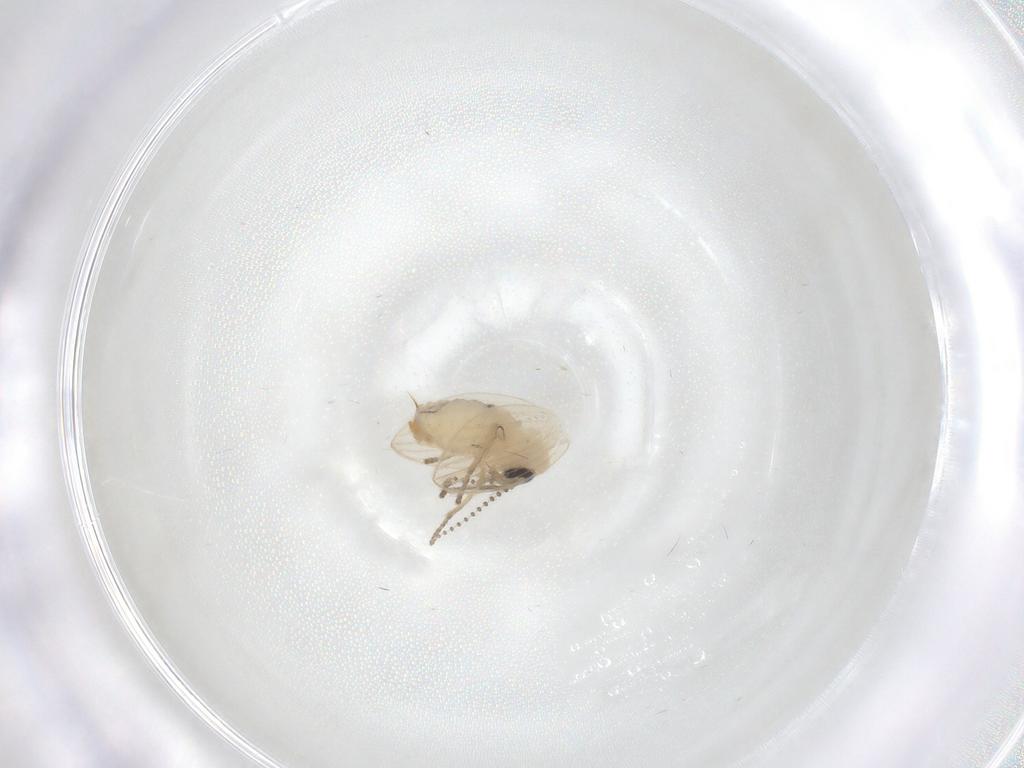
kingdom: Animalia
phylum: Arthropoda
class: Insecta
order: Diptera
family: Psychodidae
